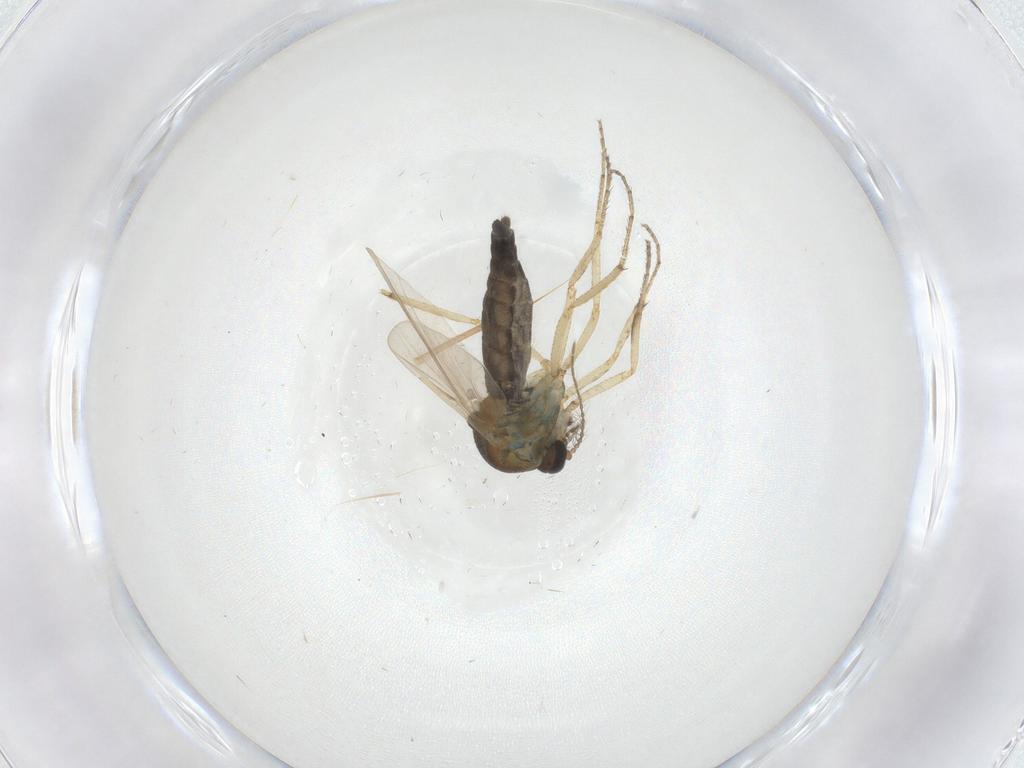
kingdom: Animalia
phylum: Arthropoda
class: Insecta
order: Diptera
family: Ceratopogonidae
